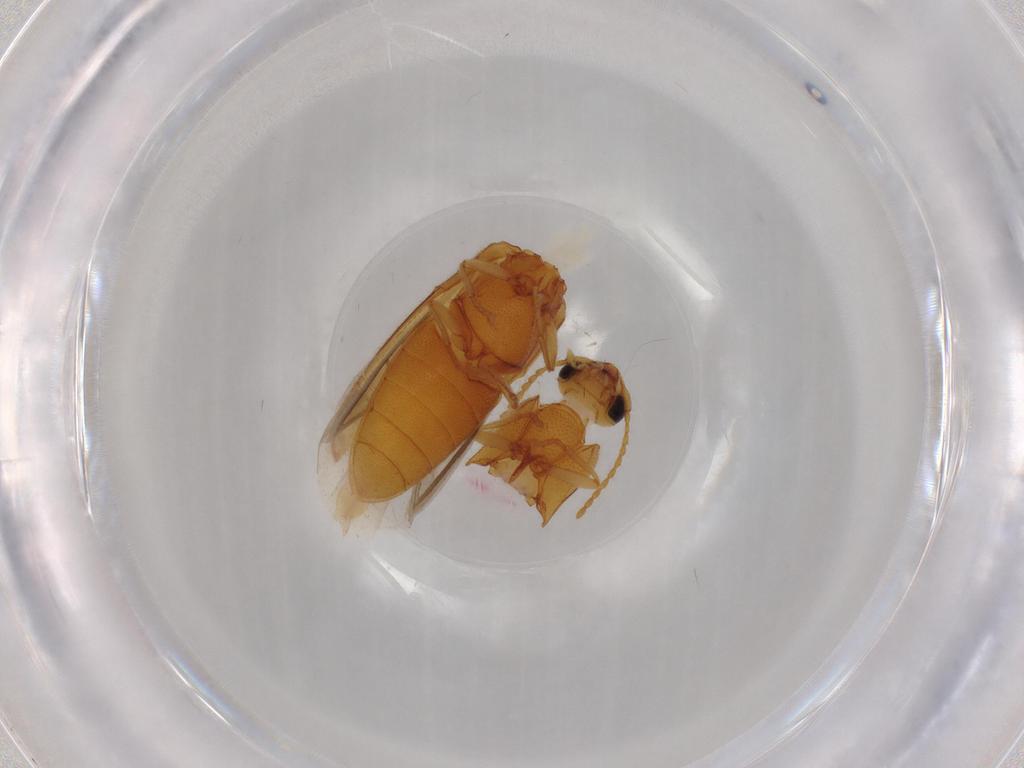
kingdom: Animalia
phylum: Arthropoda
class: Insecta
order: Coleoptera
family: Elateridae
